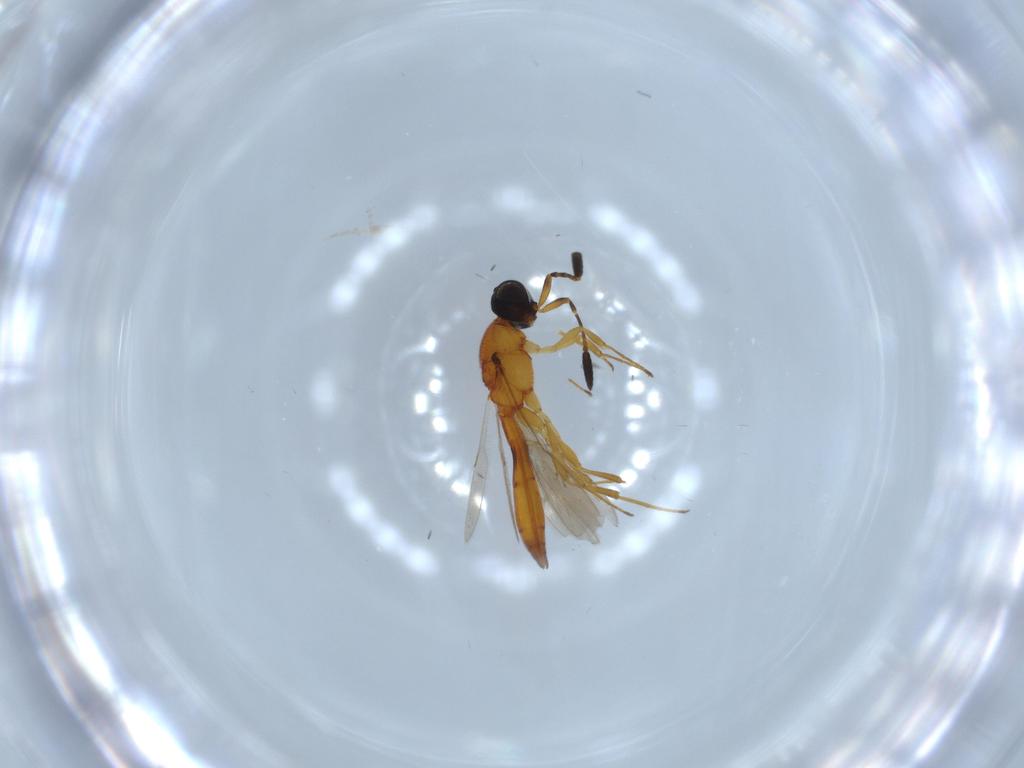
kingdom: Animalia
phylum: Arthropoda
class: Insecta
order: Hymenoptera
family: Scelionidae
